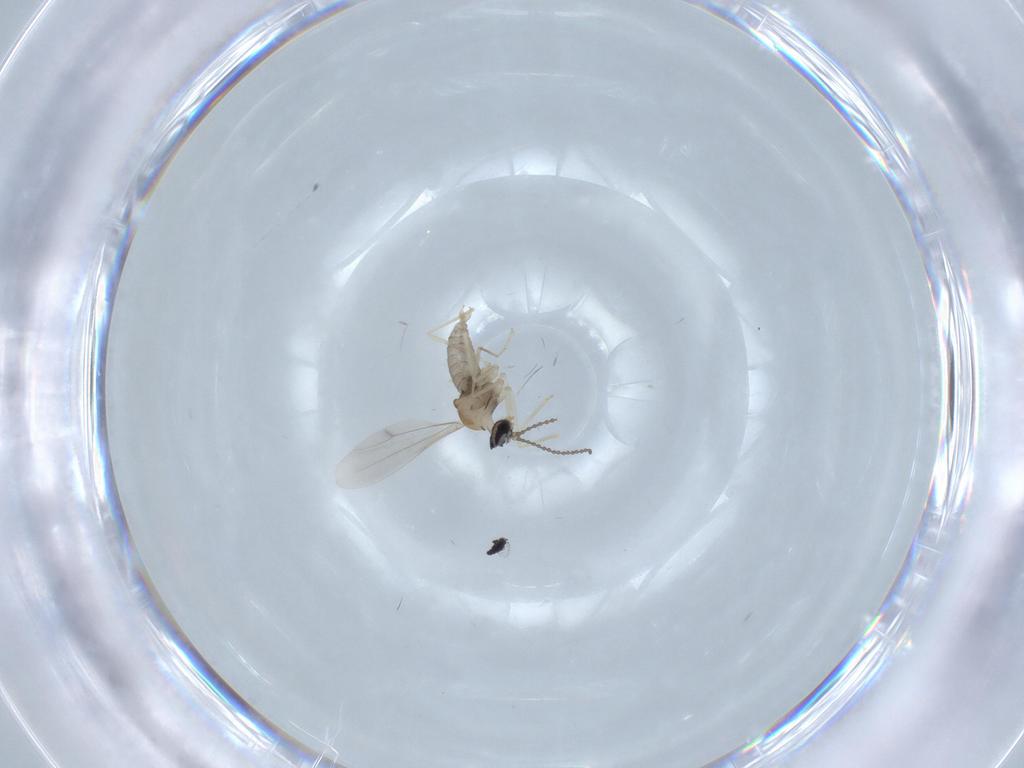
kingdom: Animalia
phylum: Arthropoda
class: Insecta
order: Diptera
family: Cecidomyiidae
